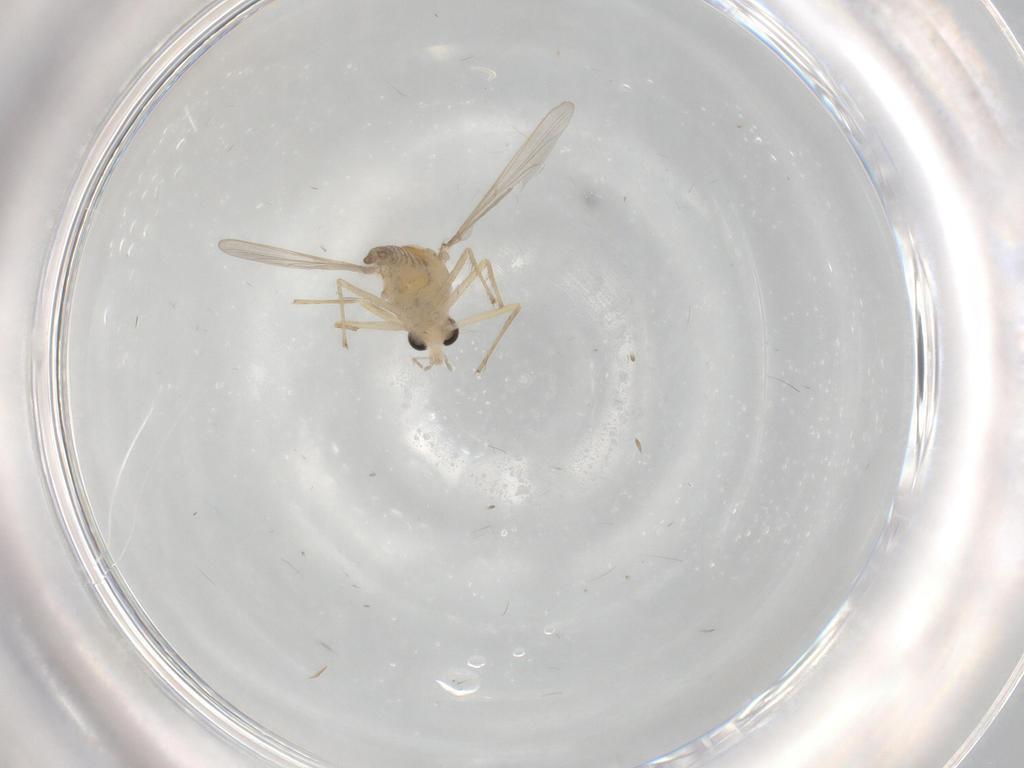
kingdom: Animalia
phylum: Arthropoda
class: Insecta
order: Diptera
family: Chironomidae
